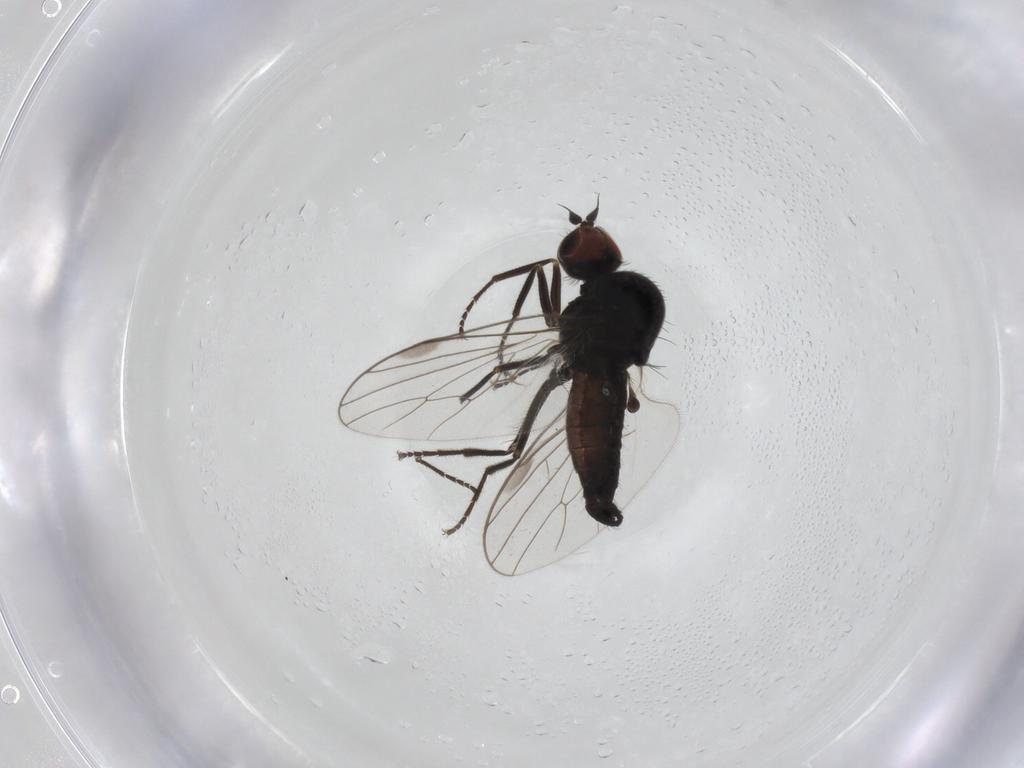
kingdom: Animalia
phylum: Arthropoda
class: Insecta
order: Diptera
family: Hybotidae
